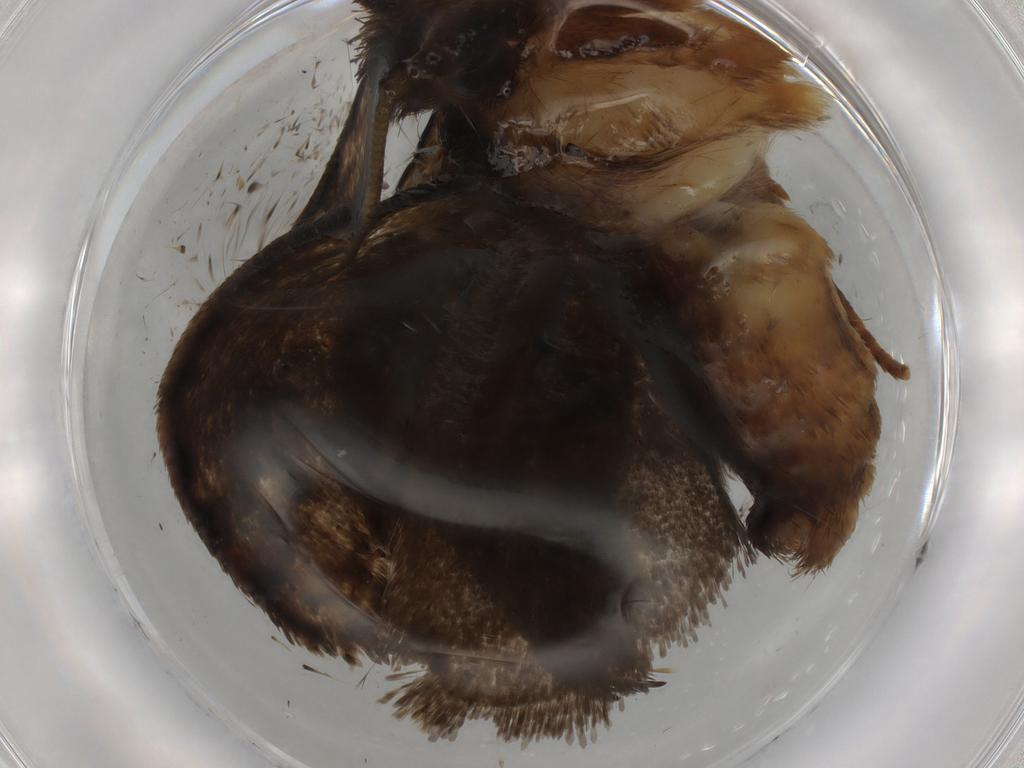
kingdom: Animalia
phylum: Arthropoda
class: Insecta
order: Lepidoptera
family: Tineidae
